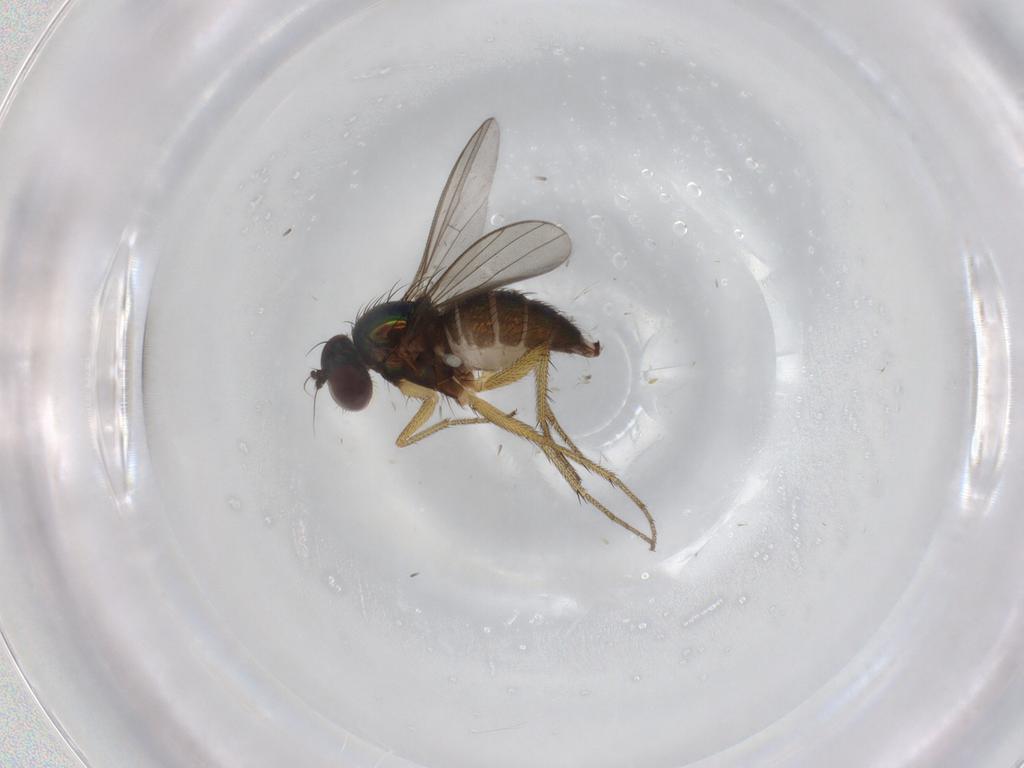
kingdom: Animalia
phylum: Arthropoda
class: Insecta
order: Diptera
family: Dolichopodidae
